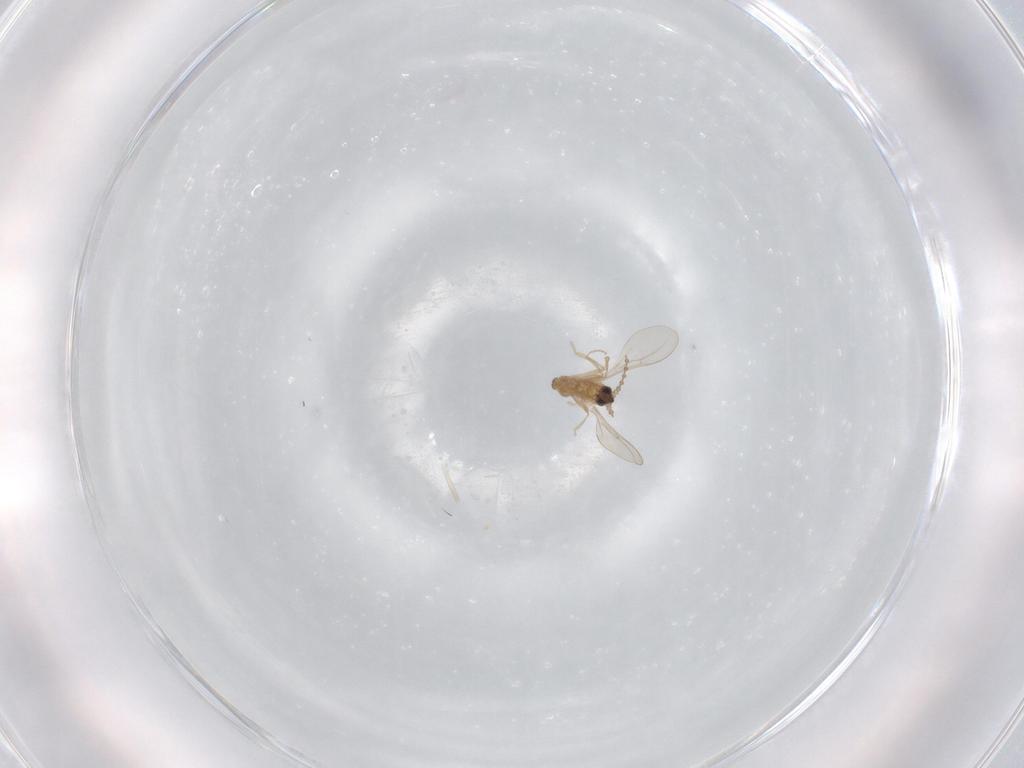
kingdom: Animalia
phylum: Arthropoda
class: Insecta
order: Diptera
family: Cecidomyiidae
